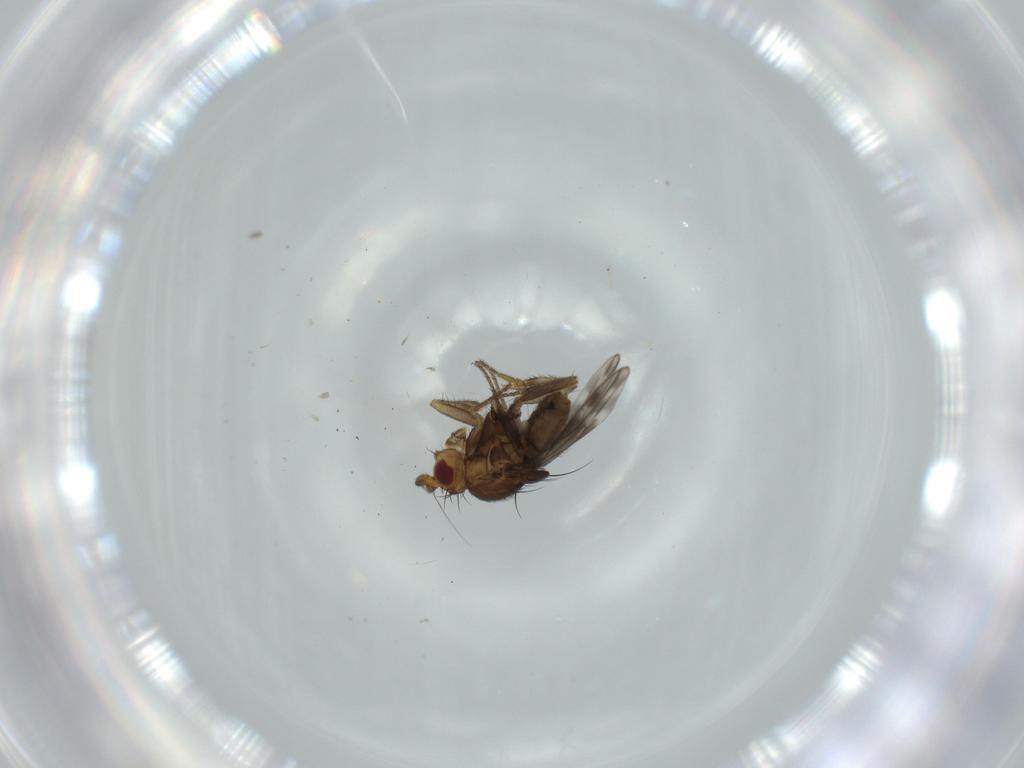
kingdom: Animalia
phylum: Arthropoda
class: Insecta
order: Diptera
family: Sphaeroceridae
